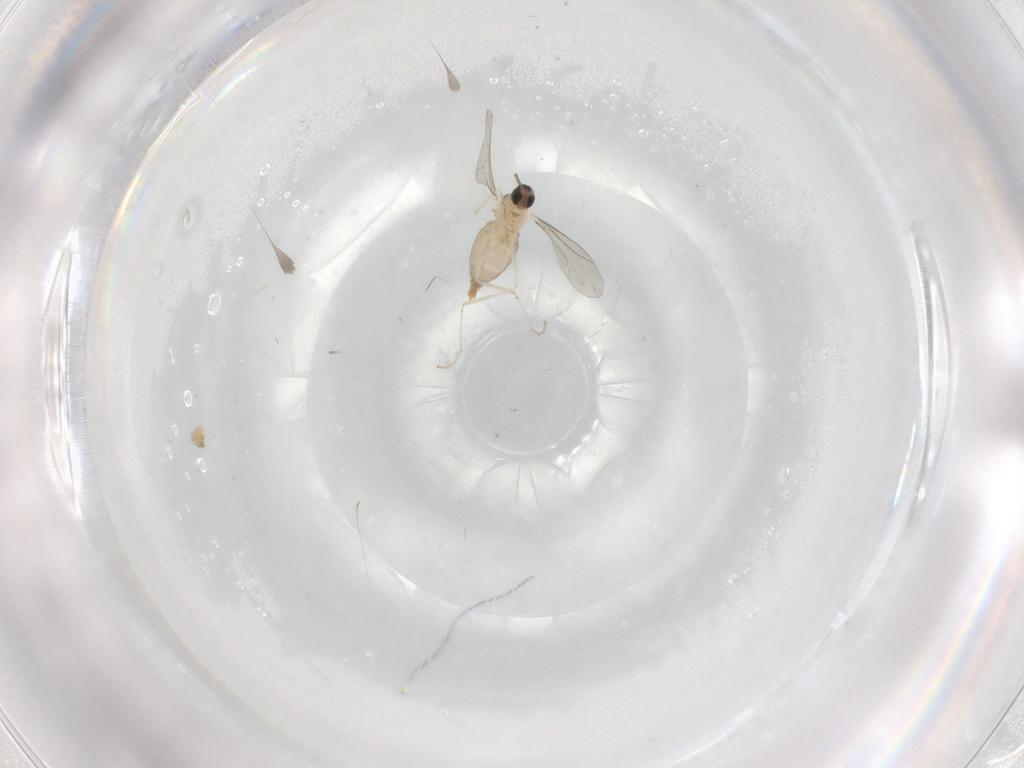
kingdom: Animalia
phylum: Arthropoda
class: Insecta
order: Diptera
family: Cecidomyiidae
